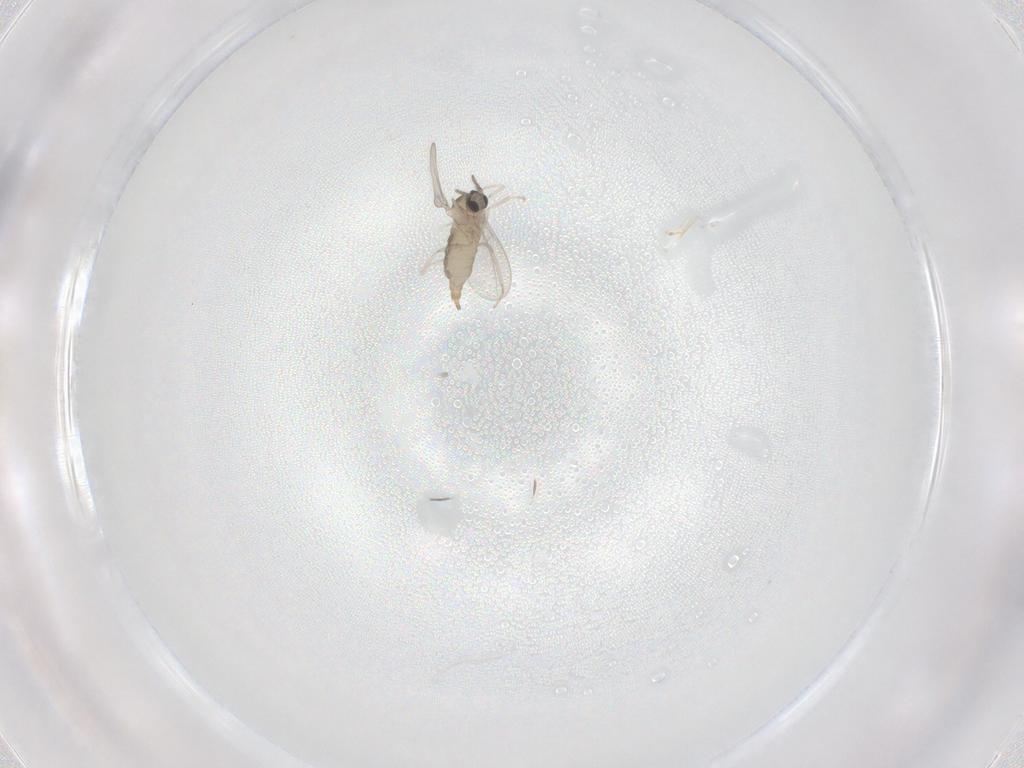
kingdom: Animalia
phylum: Arthropoda
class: Insecta
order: Diptera
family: Cecidomyiidae
